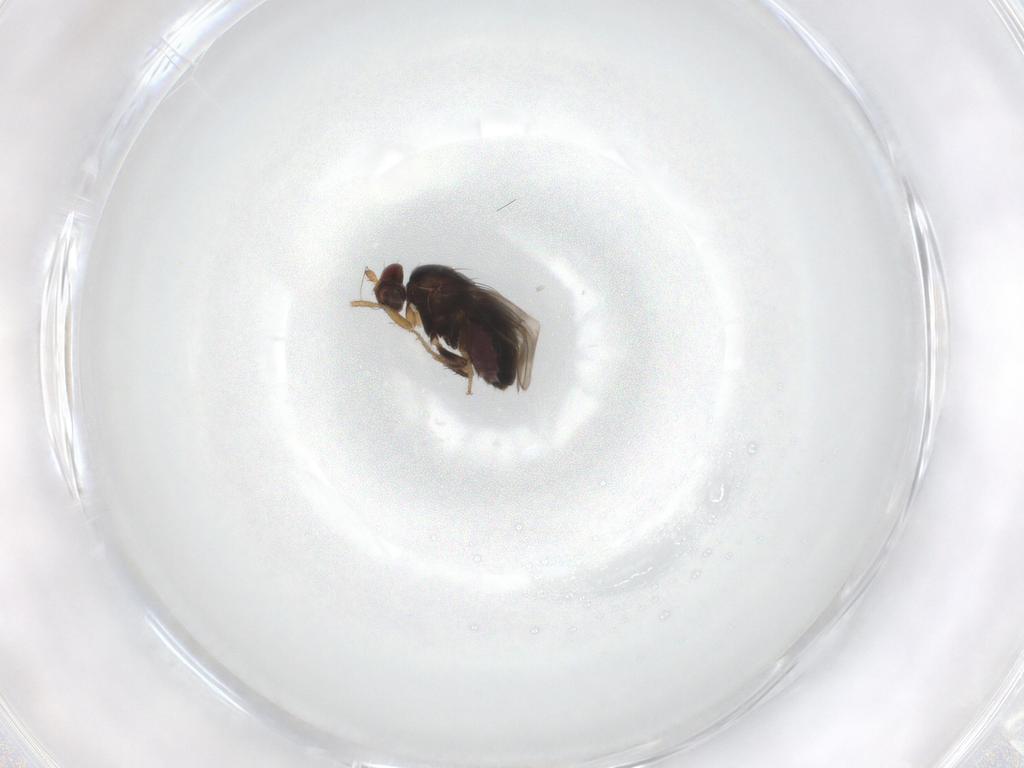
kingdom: Animalia
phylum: Arthropoda
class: Insecta
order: Diptera
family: Sphaeroceridae
